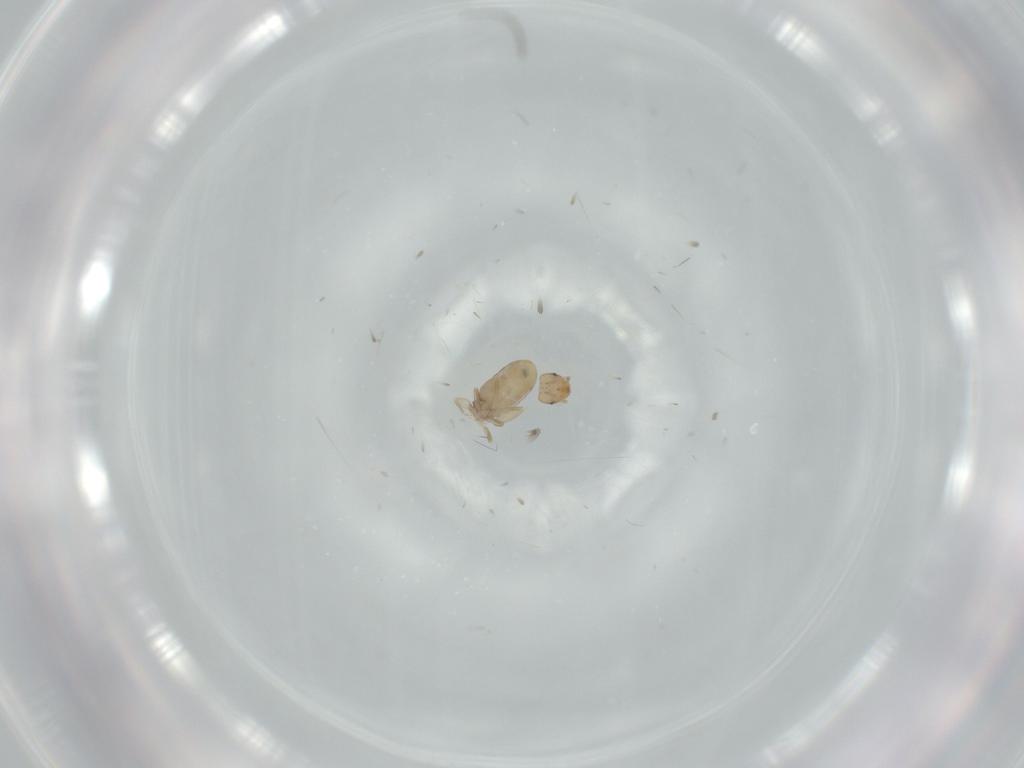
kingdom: Animalia
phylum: Arthropoda
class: Insecta
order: Psocodea
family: Liposcelididae
